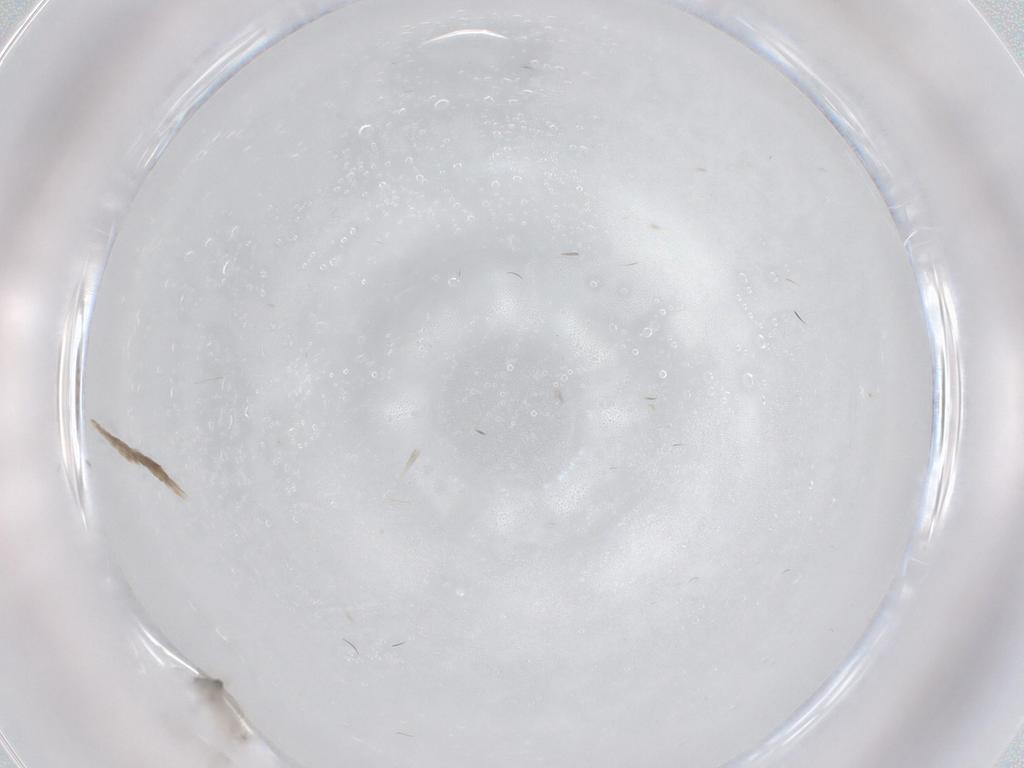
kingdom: Animalia
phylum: Arthropoda
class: Insecta
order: Diptera
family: Cecidomyiidae
